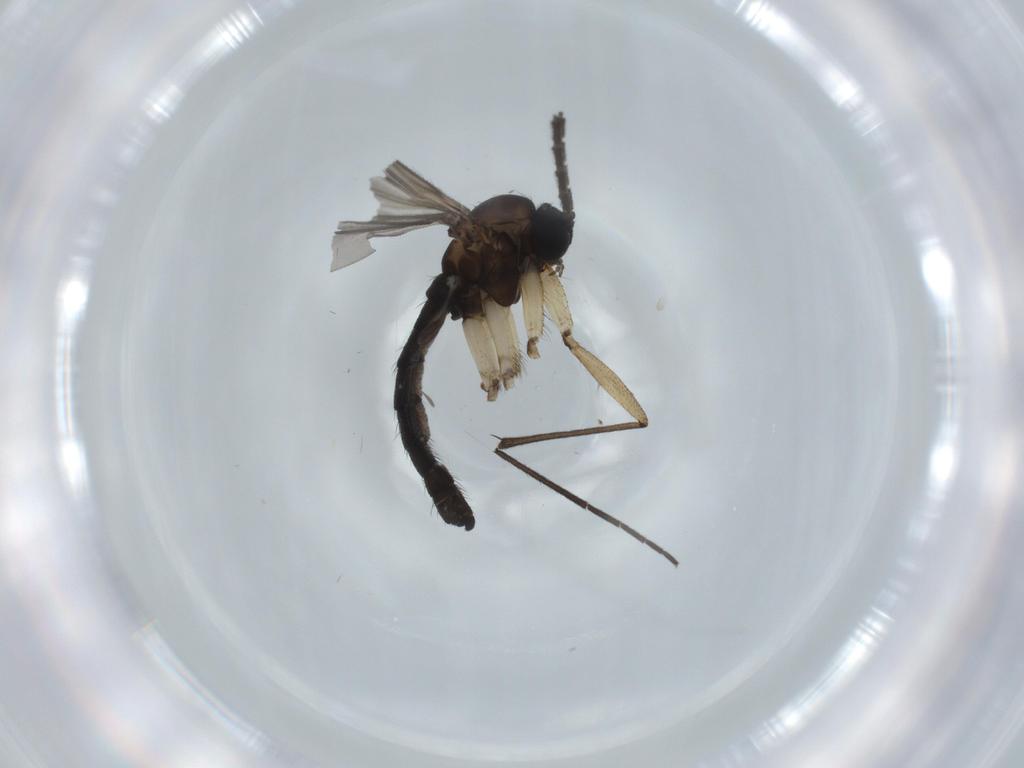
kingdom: Animalia
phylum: Arthropoda
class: Insecta
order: Diptera
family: Sciaridae
